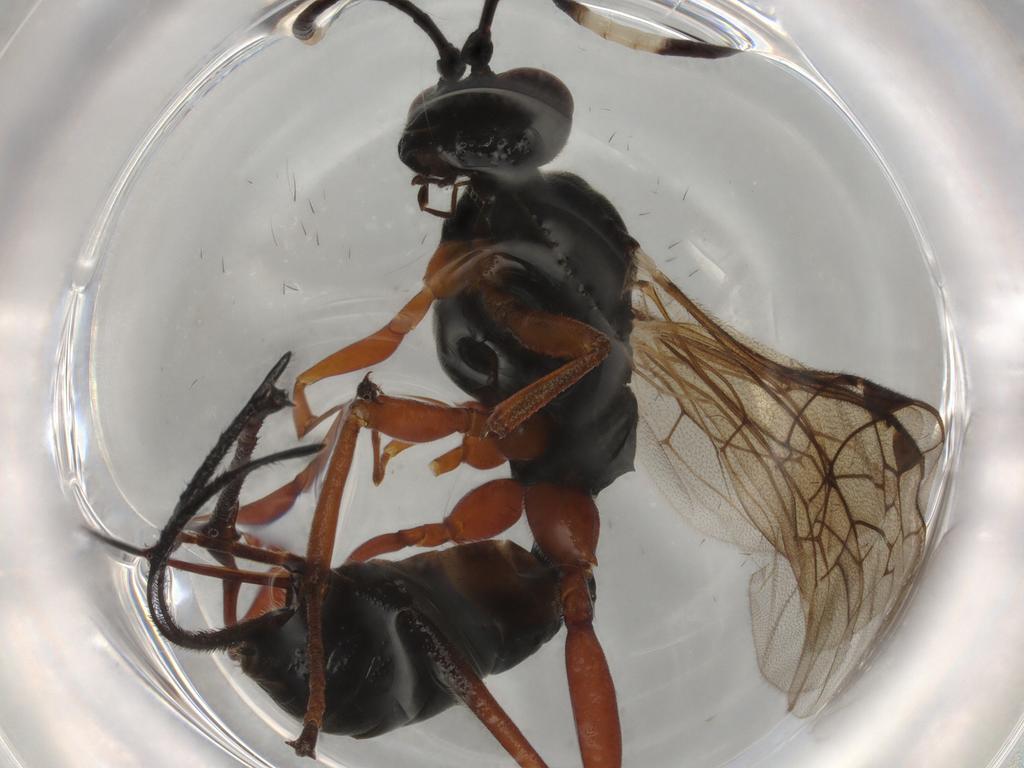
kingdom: Animalia
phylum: Arthropoda
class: Insecta
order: Hymenoptera
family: Ichneumonidae
